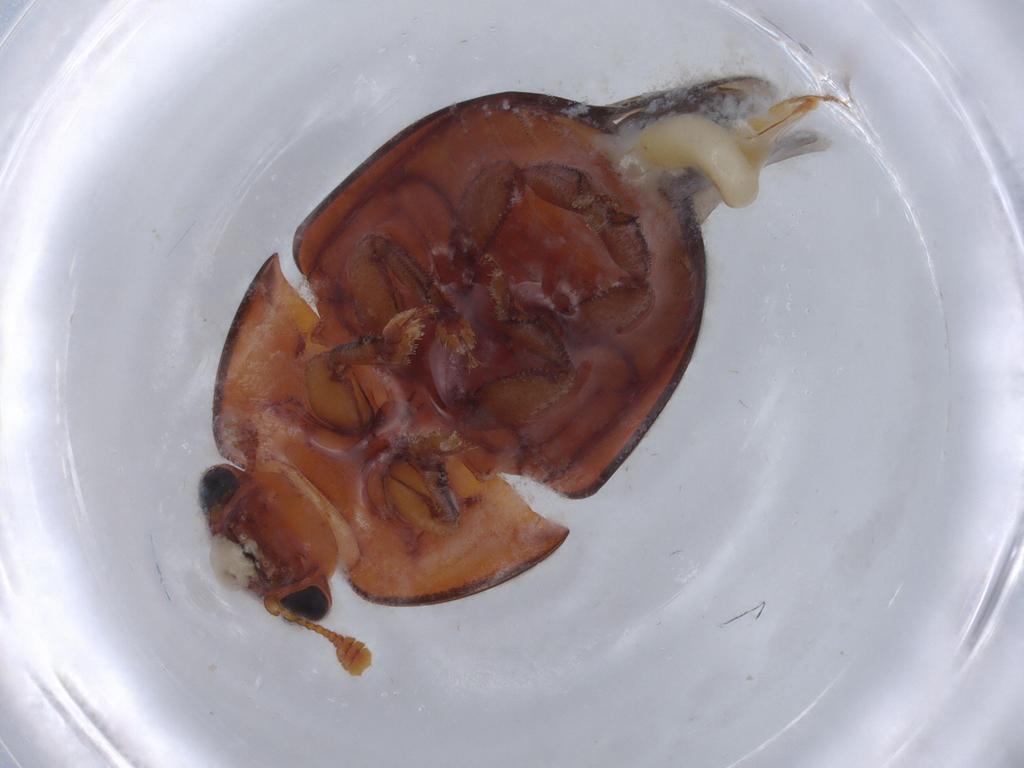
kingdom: Animalia
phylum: Arthropoda
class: Insecta
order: Coleoptera
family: Nitidulidae
